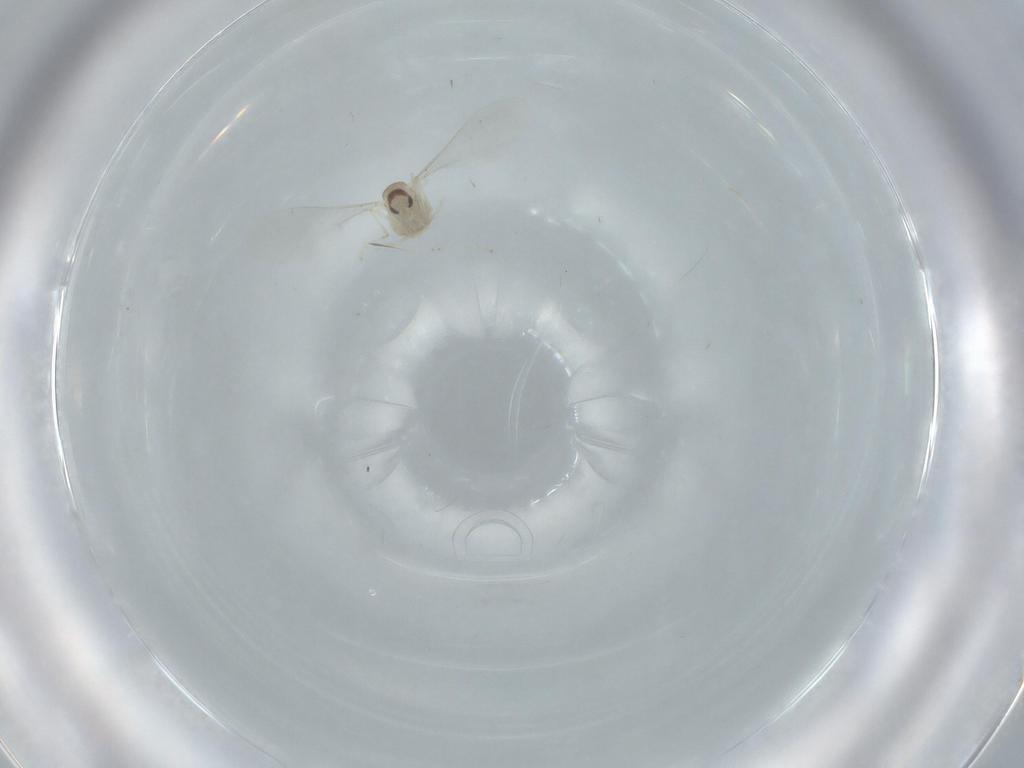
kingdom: Animalia
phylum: Arthropoda
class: Insecta
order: Diptera
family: Cecidomyiidae
